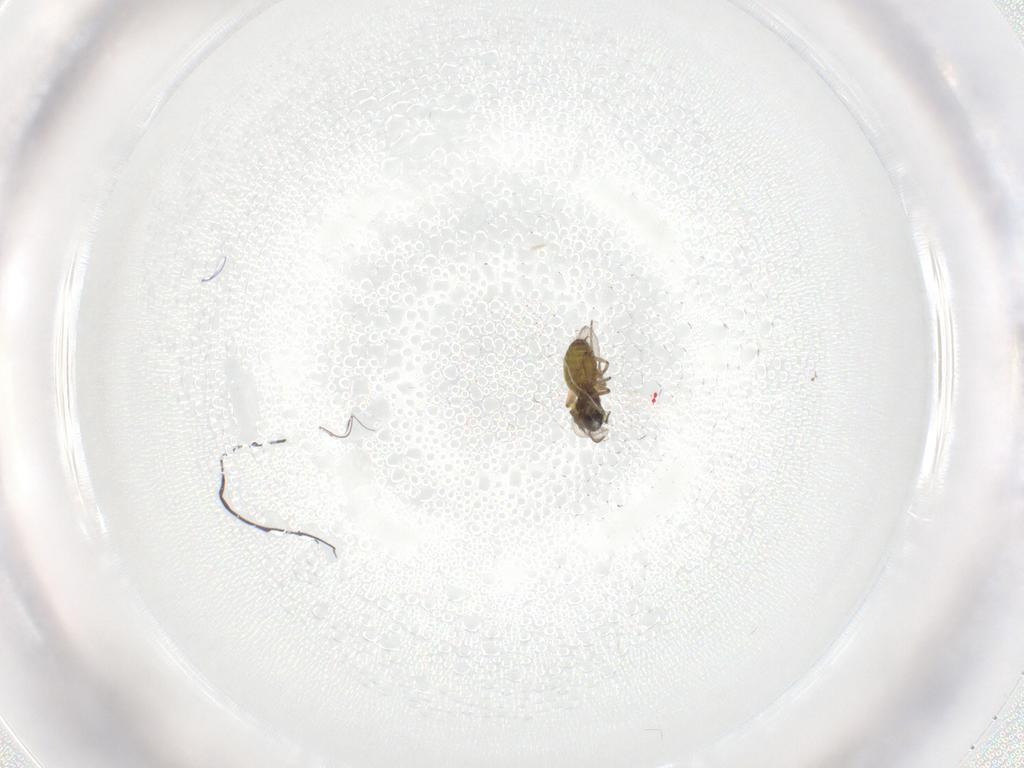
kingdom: Animalia
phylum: Arthropoda
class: Insecta
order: Diptera
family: Ceratopogonidae
